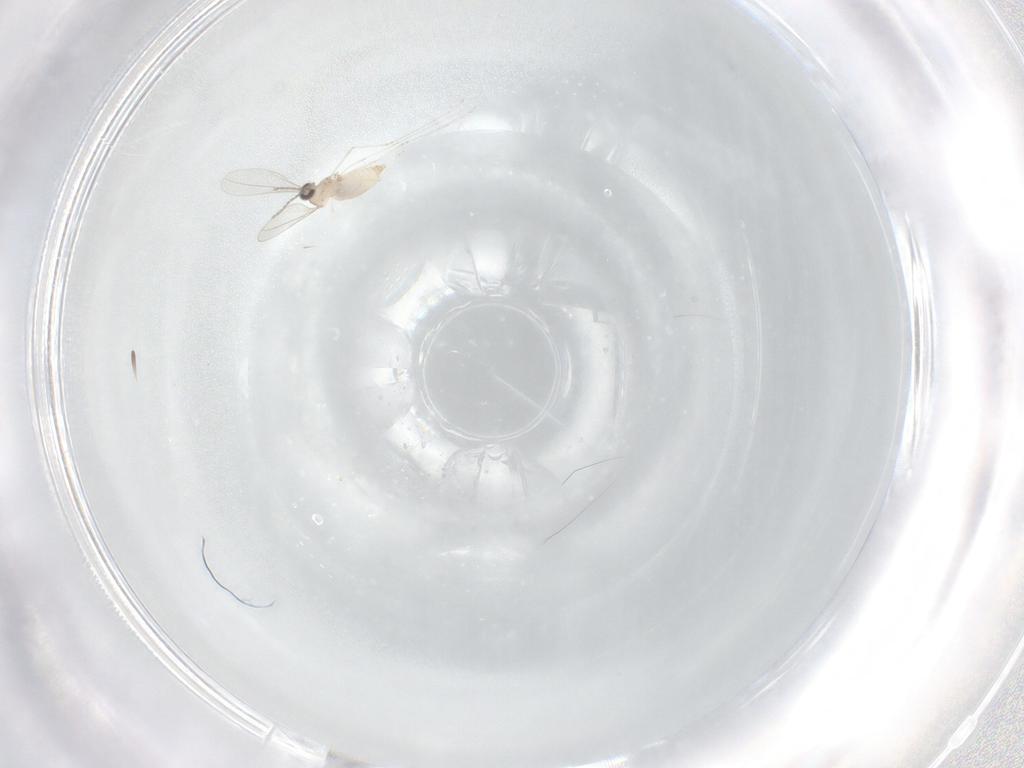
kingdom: Animalia
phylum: Arthropoda
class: Insecta
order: Diptera
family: Cecidomyiidae
